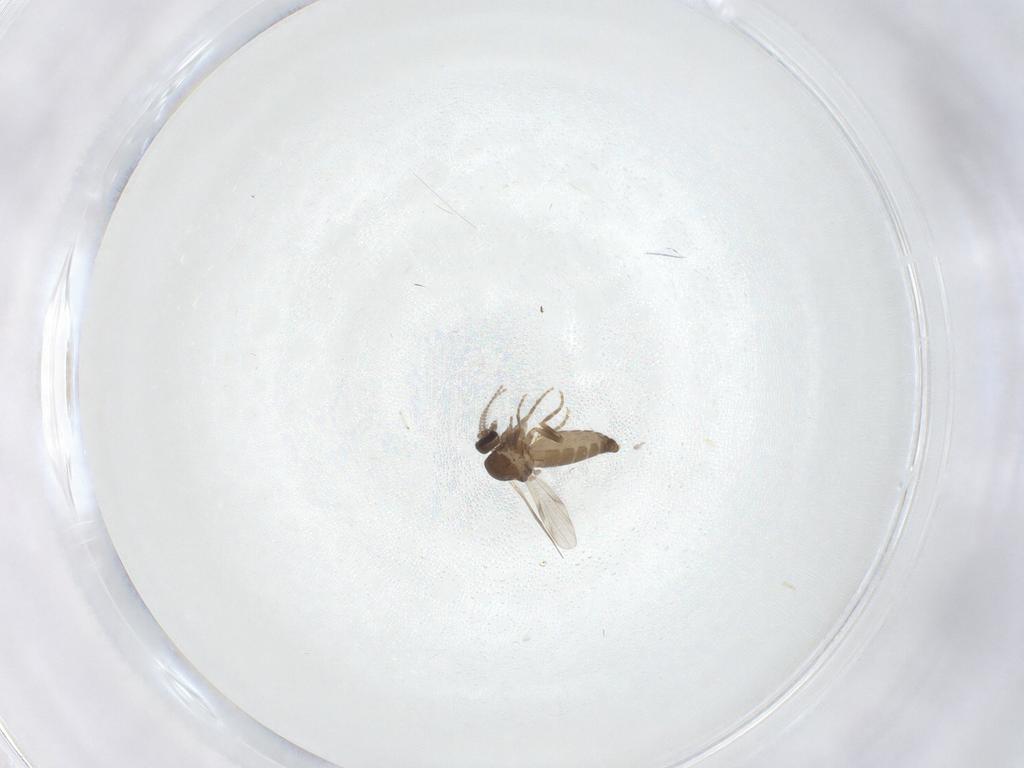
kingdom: Animalia
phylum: Arthropoda
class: Insecta
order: Diptera
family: Ceratopogonidae
